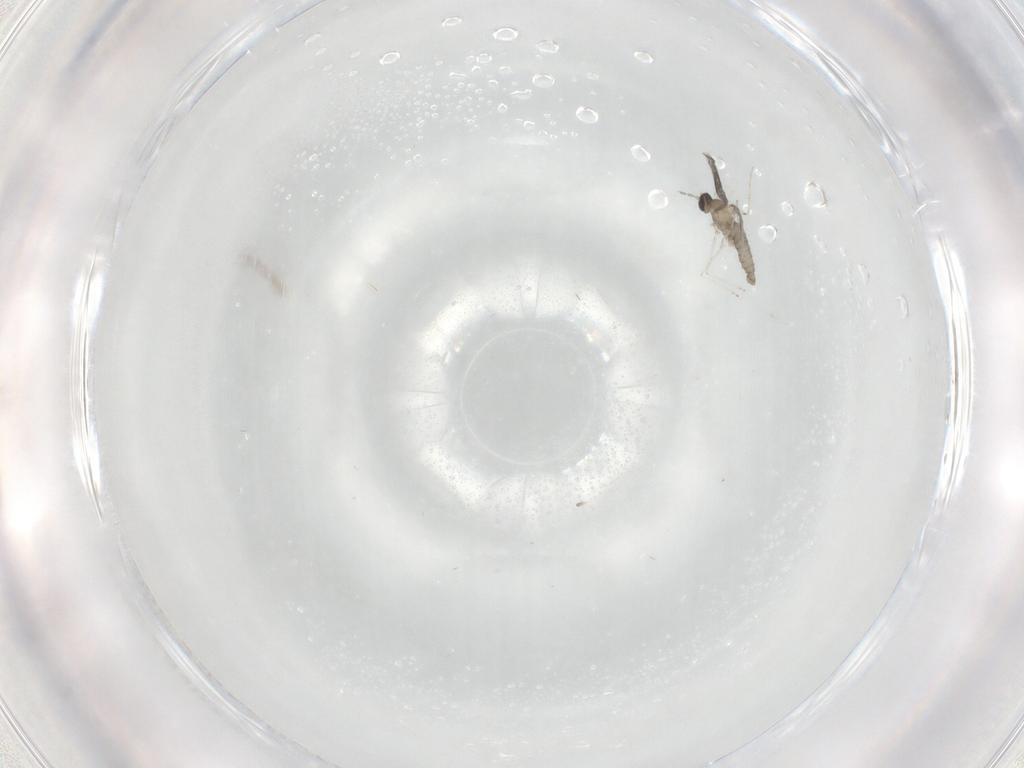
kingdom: Animalia
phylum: Arthropoda
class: Insecta
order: Diptera
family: Cecidomyiidae
